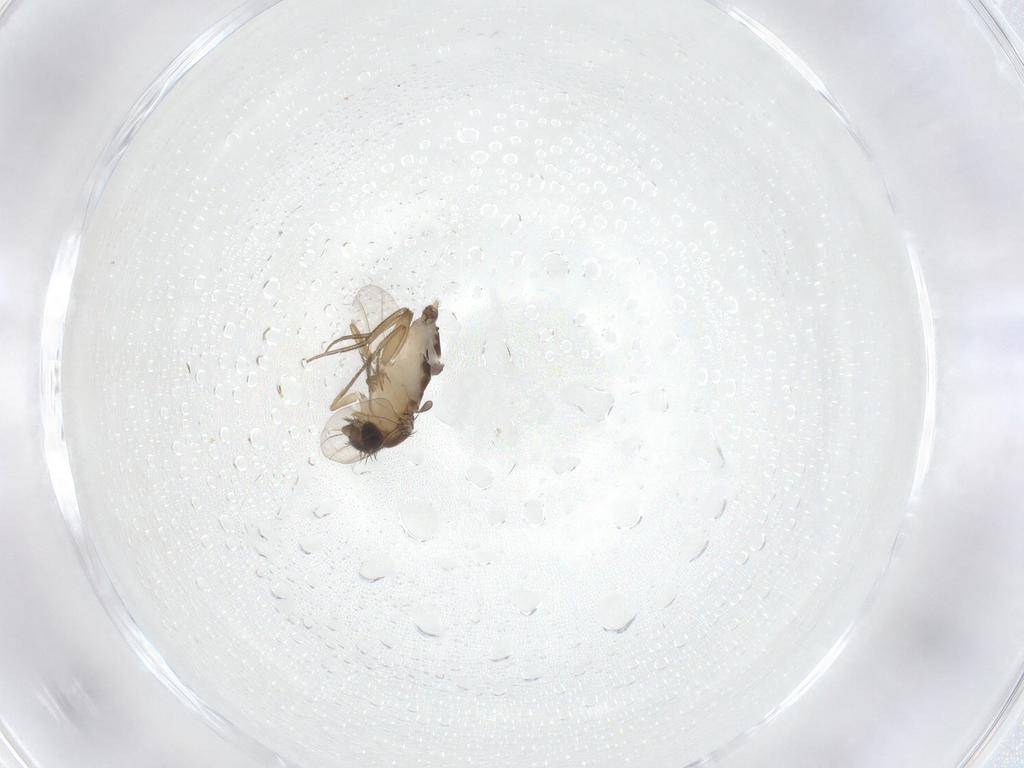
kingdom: Animalia
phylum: Arthropoda
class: Insecta
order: Diptera
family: Phoridae
